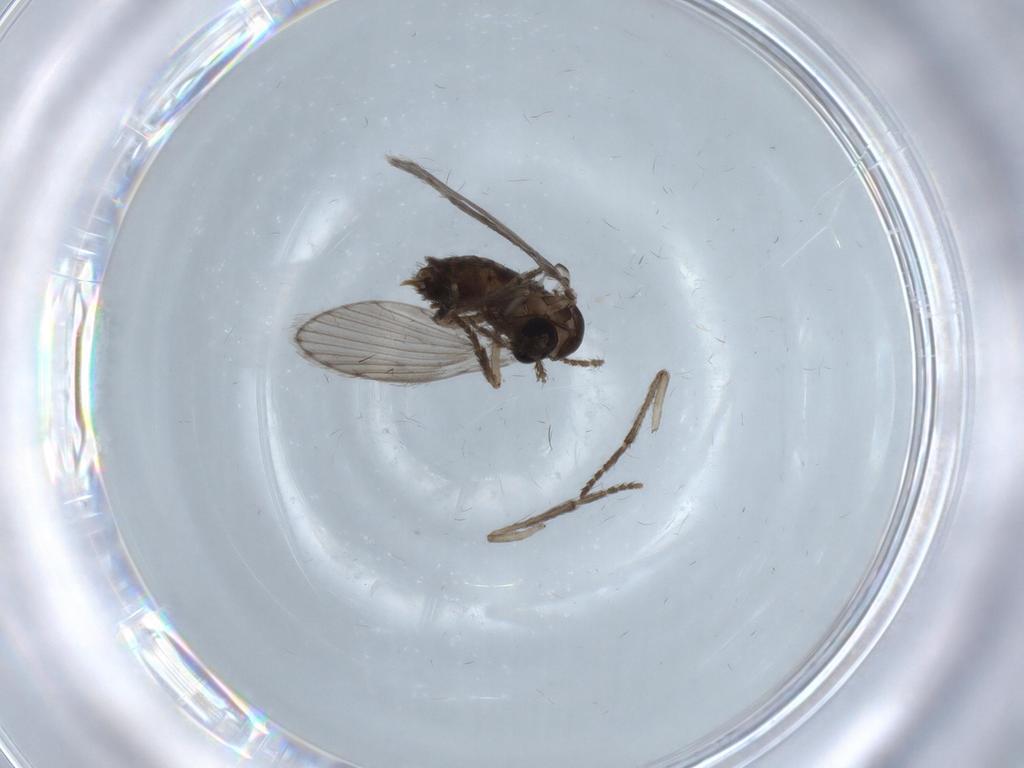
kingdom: Animalia
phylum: Arthropoda
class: Insecta
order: Diptera
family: Psychodidae
